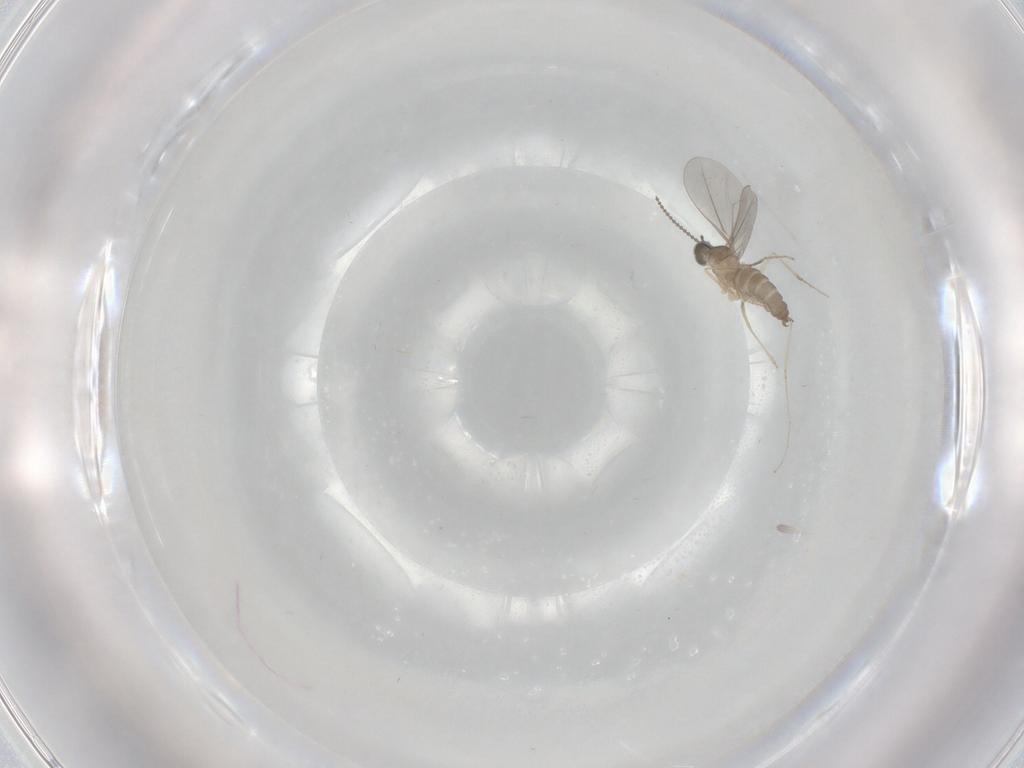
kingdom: Animalia
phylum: Arthropoda
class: Insecta
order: Diptera
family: Cecidomyiidae
